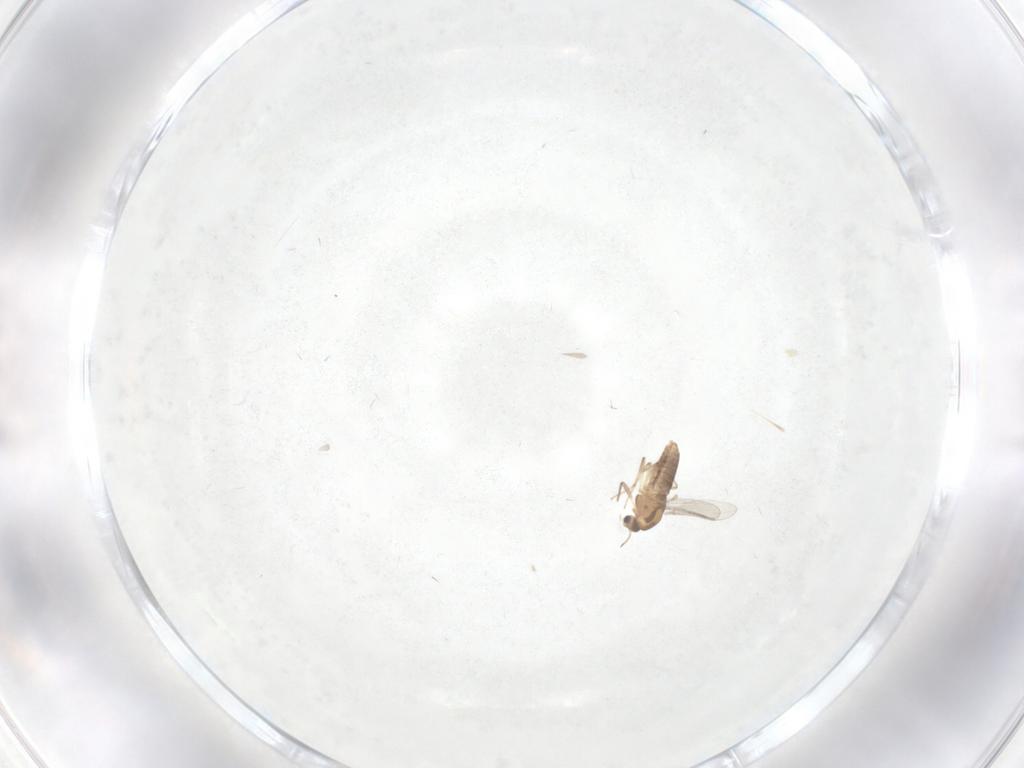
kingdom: Animalia
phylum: Arthropoda
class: Insecta
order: Diptera
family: Chironomidae
